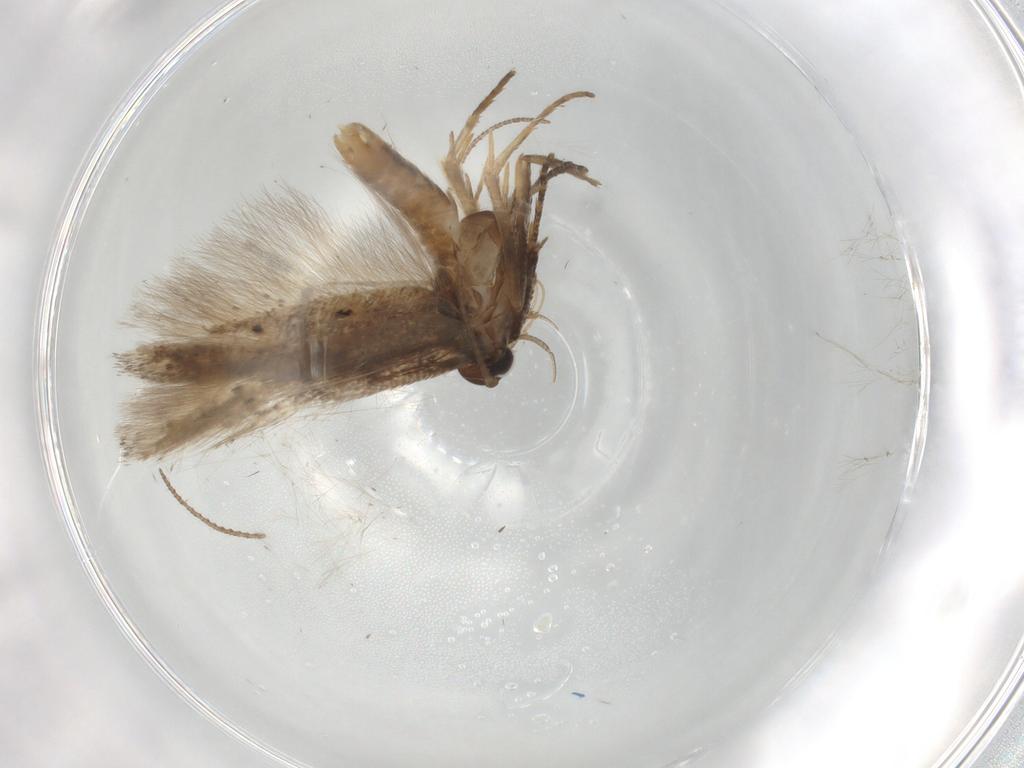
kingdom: Animalia
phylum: Arthropoda
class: Insecta
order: Lepidoptera
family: Gelechiidae
